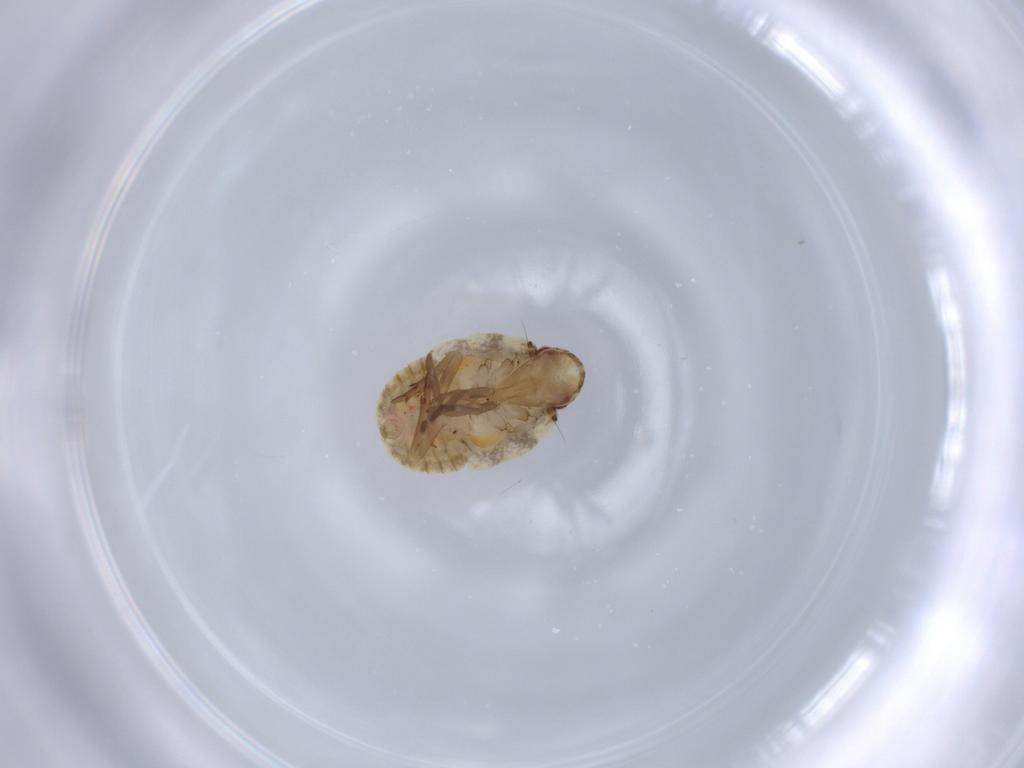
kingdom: Animalia
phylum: Arthropoda
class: Insecta
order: Hemiptera
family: Flatidae
